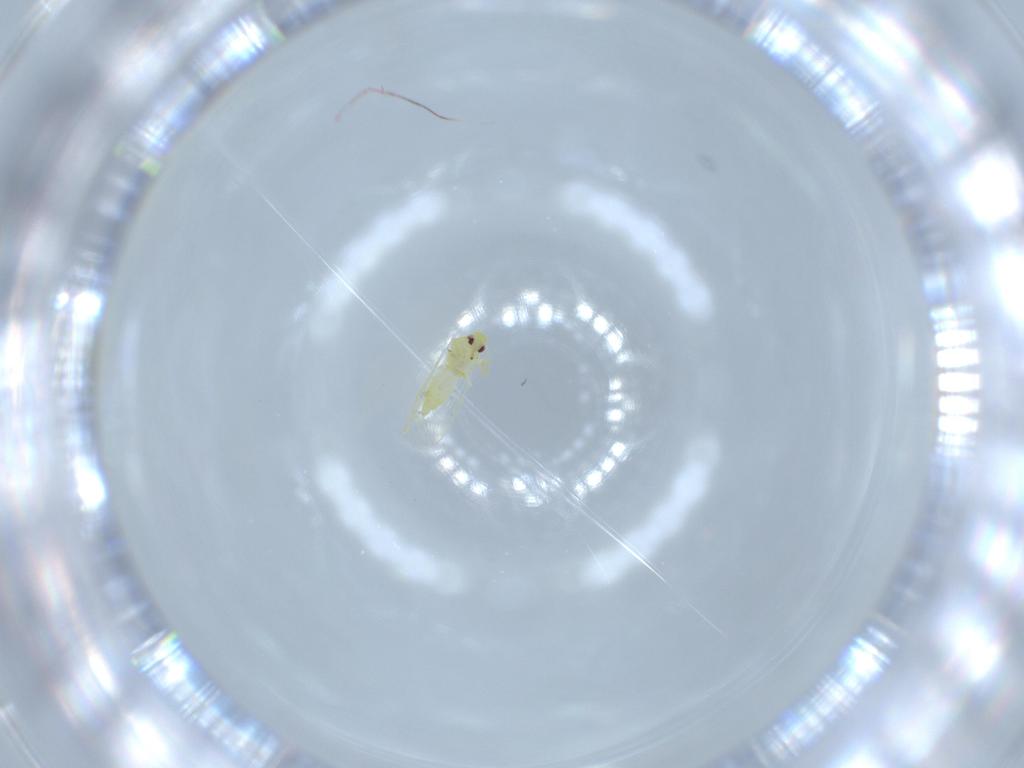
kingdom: Animalia
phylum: Arthropoda
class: Insecta
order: Hemiptera
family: Aleyrodidae
